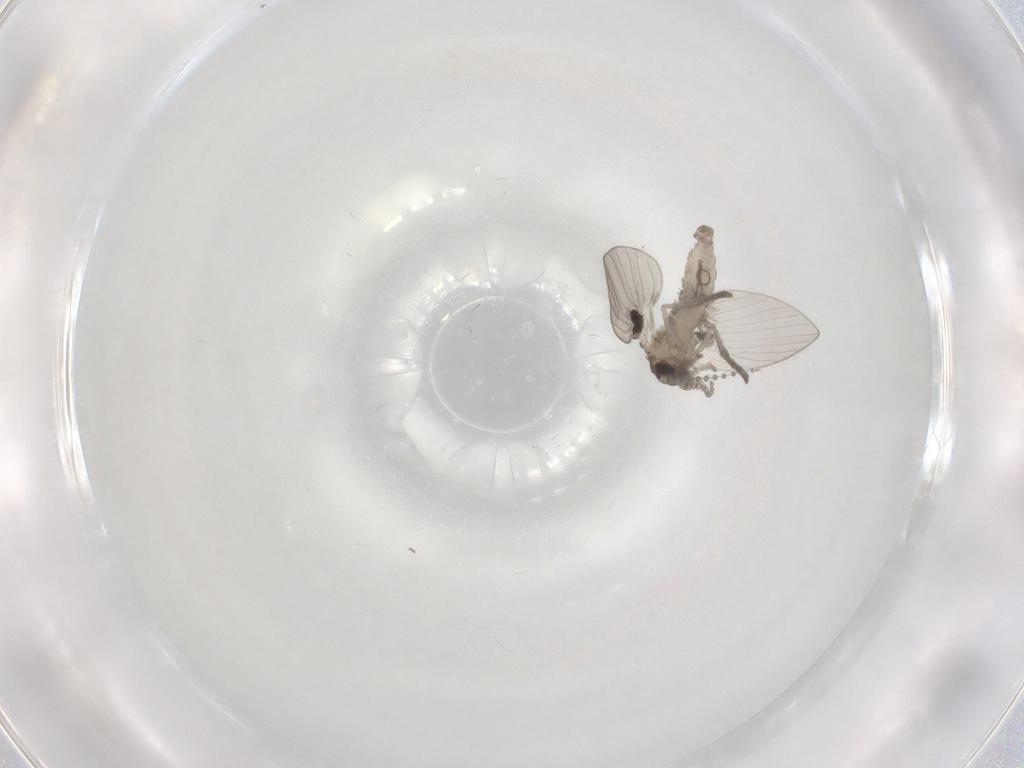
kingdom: Animalia
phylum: Arthropoda
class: Insecta
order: Diptera
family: Psychodidae
